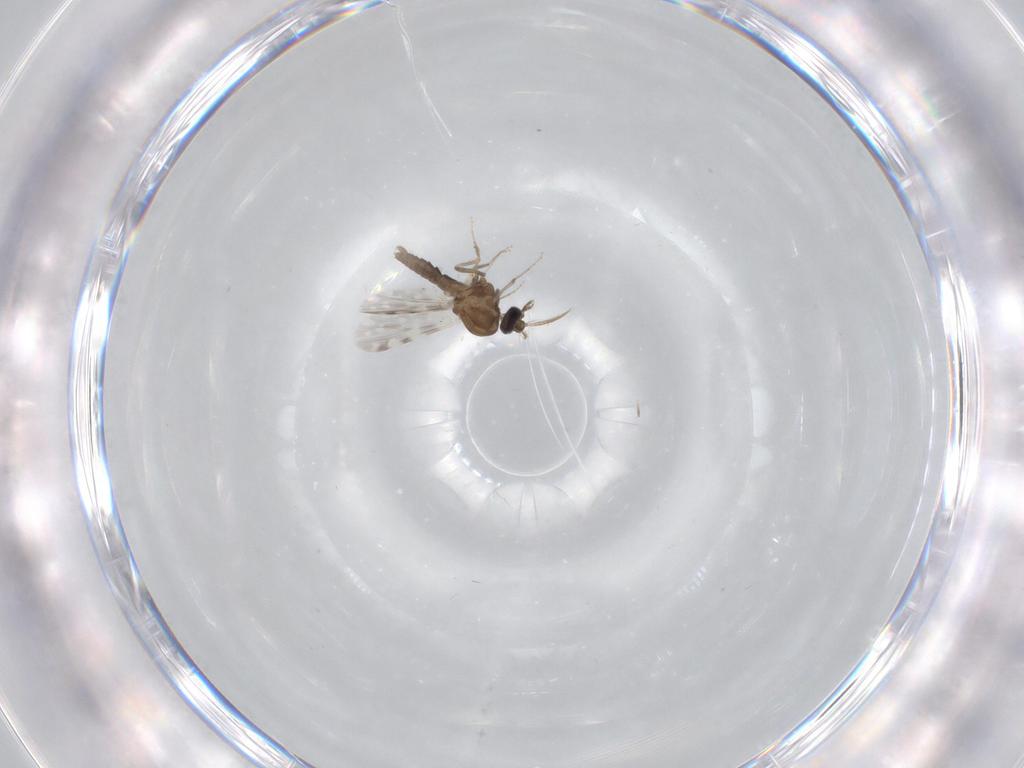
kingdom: Animalia
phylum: Arthropoda
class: Insecta
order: Diptera
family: Ceratopogonidae
